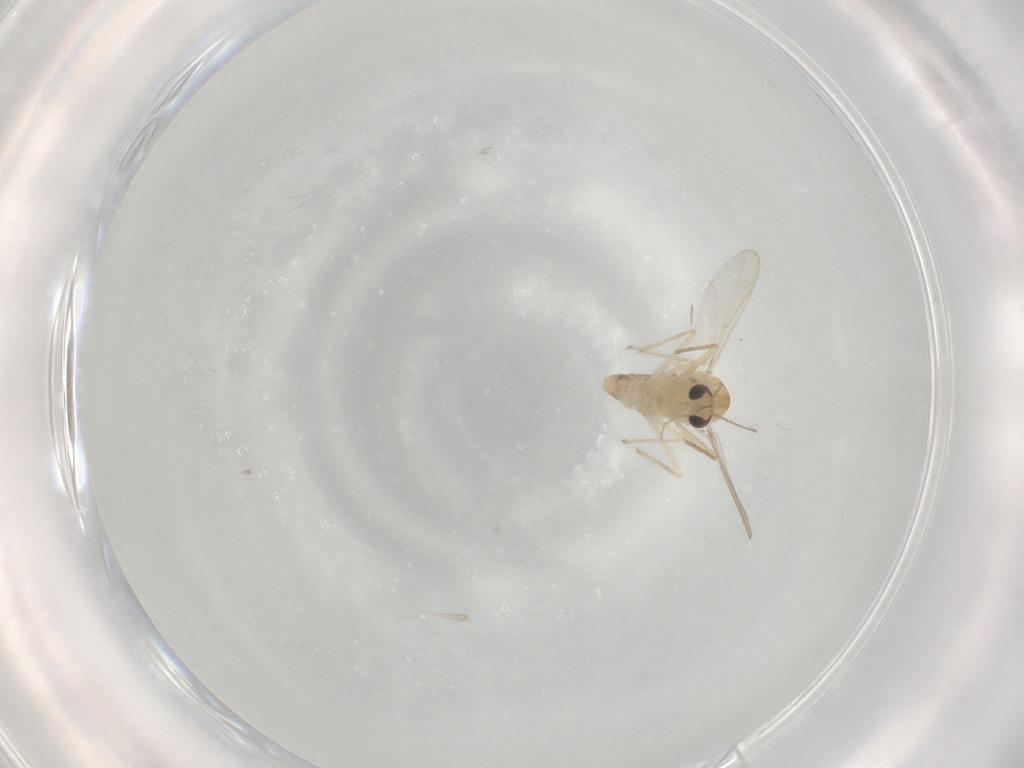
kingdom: Animalia
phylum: Arthropoda
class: Insecta
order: Diptera
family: Chironomidae
